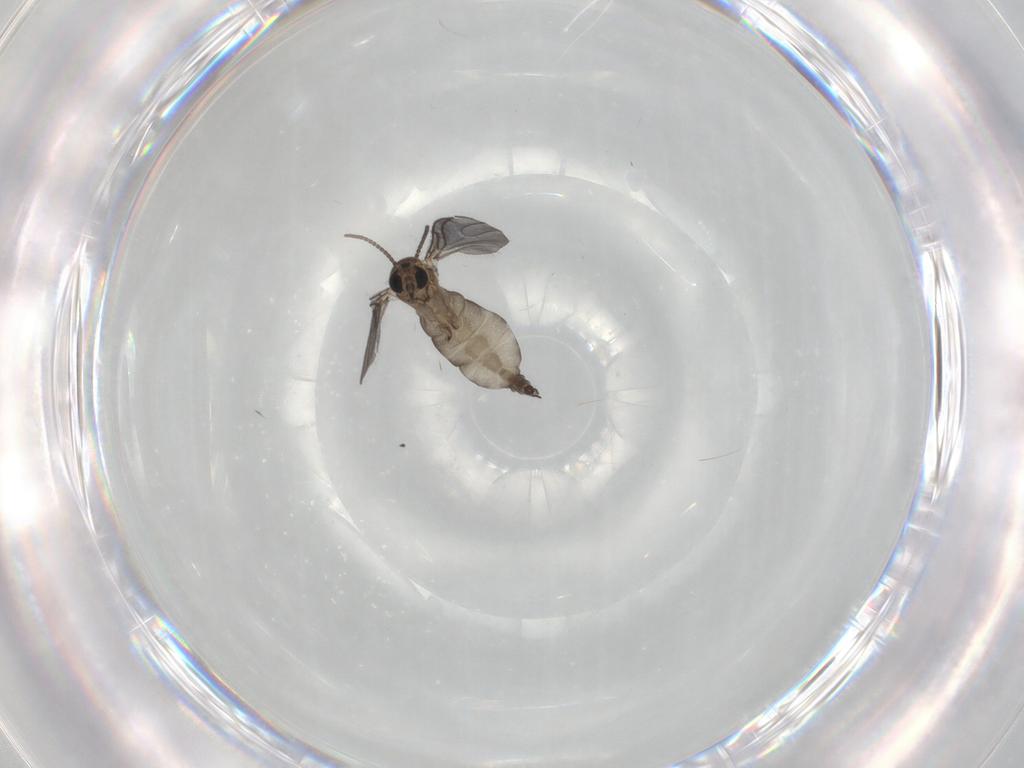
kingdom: Animalia
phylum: Arthropoda
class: Insecta
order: Diptera
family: Sciaridae
